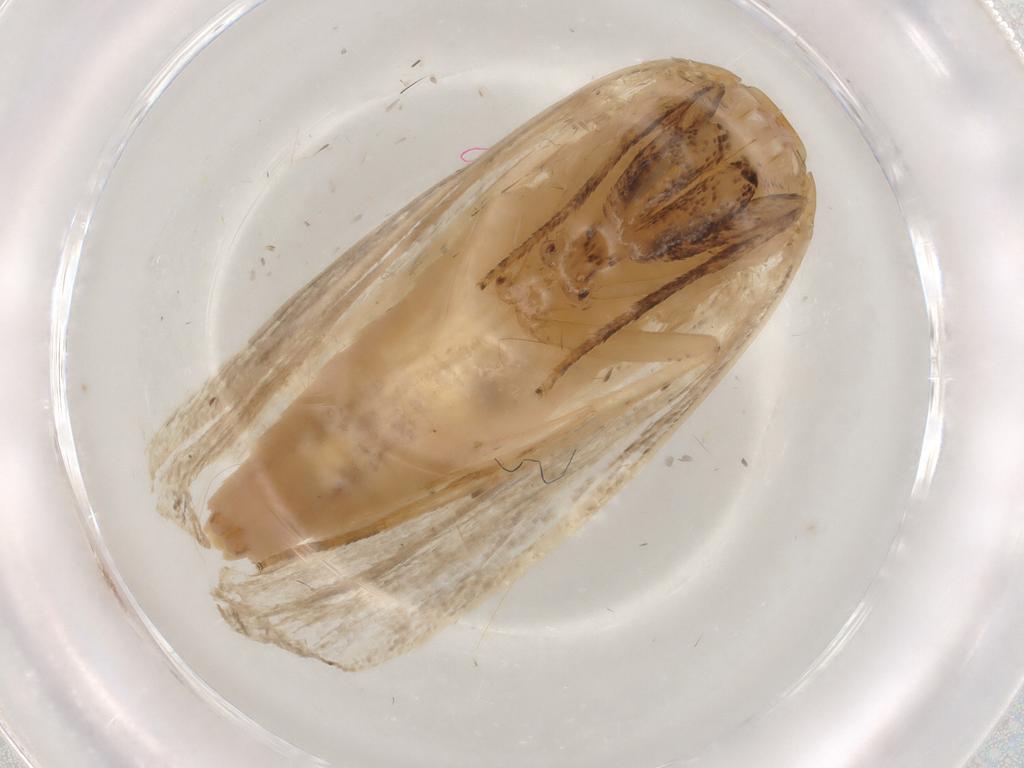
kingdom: Animalia
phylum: Arthropoda
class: Insecta
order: Lepidoptera
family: Nolidae
